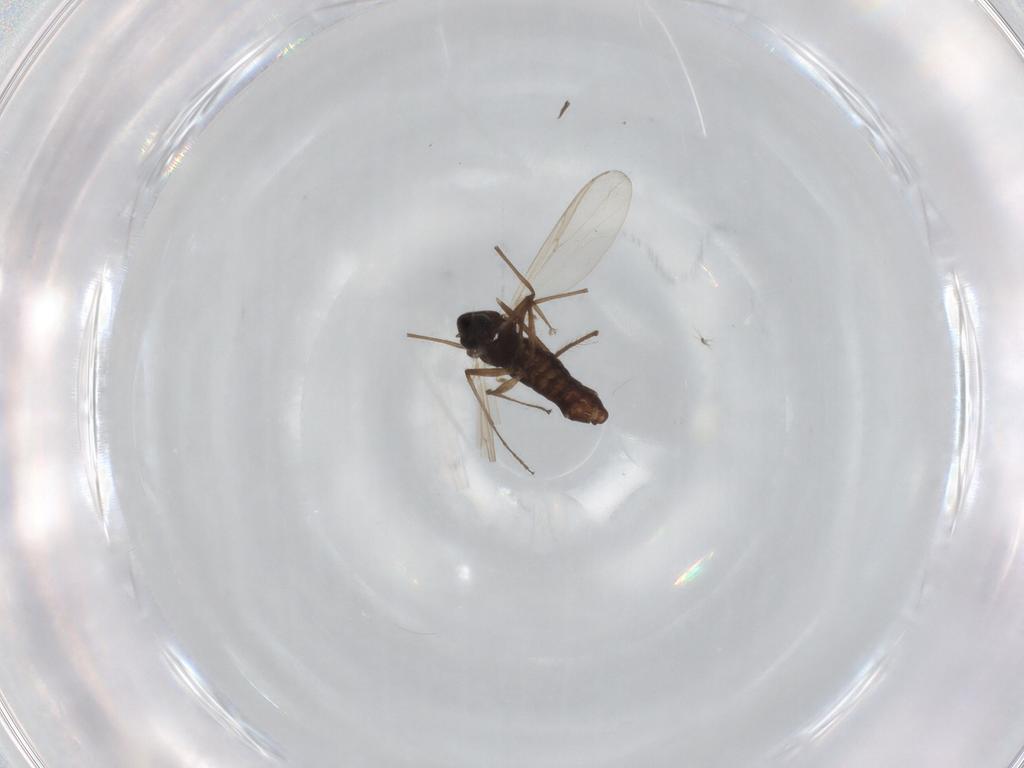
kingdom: Animalia
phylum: Arthropoda
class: Insecta
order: Diptera
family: Chironomidae
